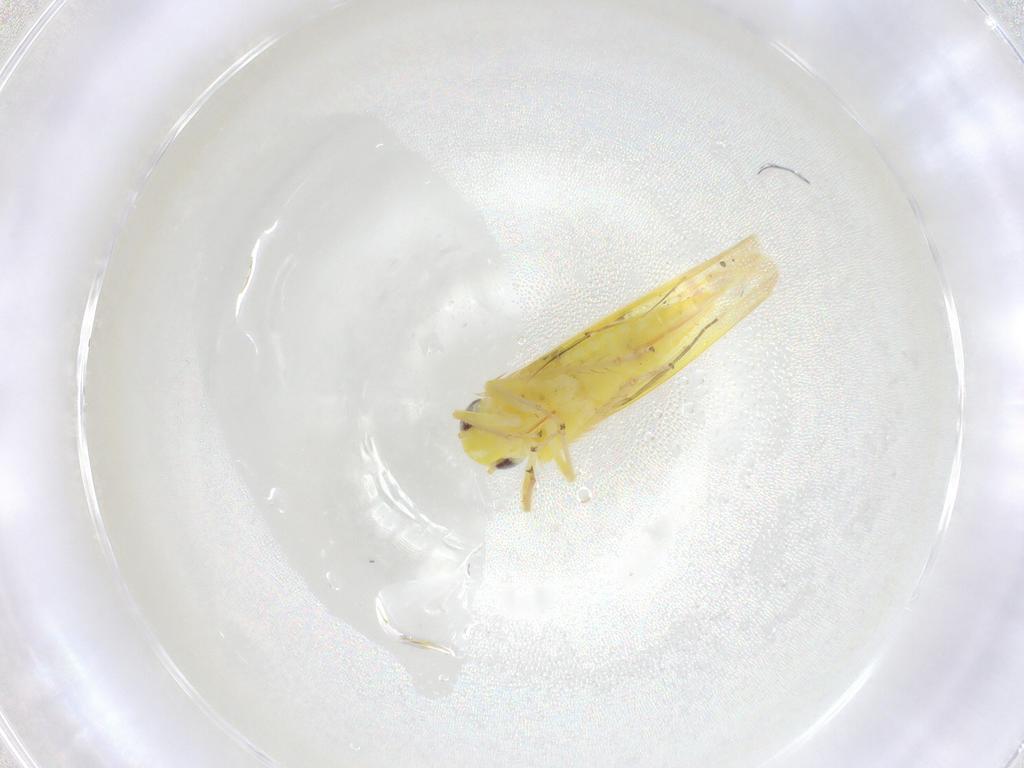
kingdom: Animalia
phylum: Arthropoda
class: Insecta
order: Hemiptera
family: Cicadellidae
